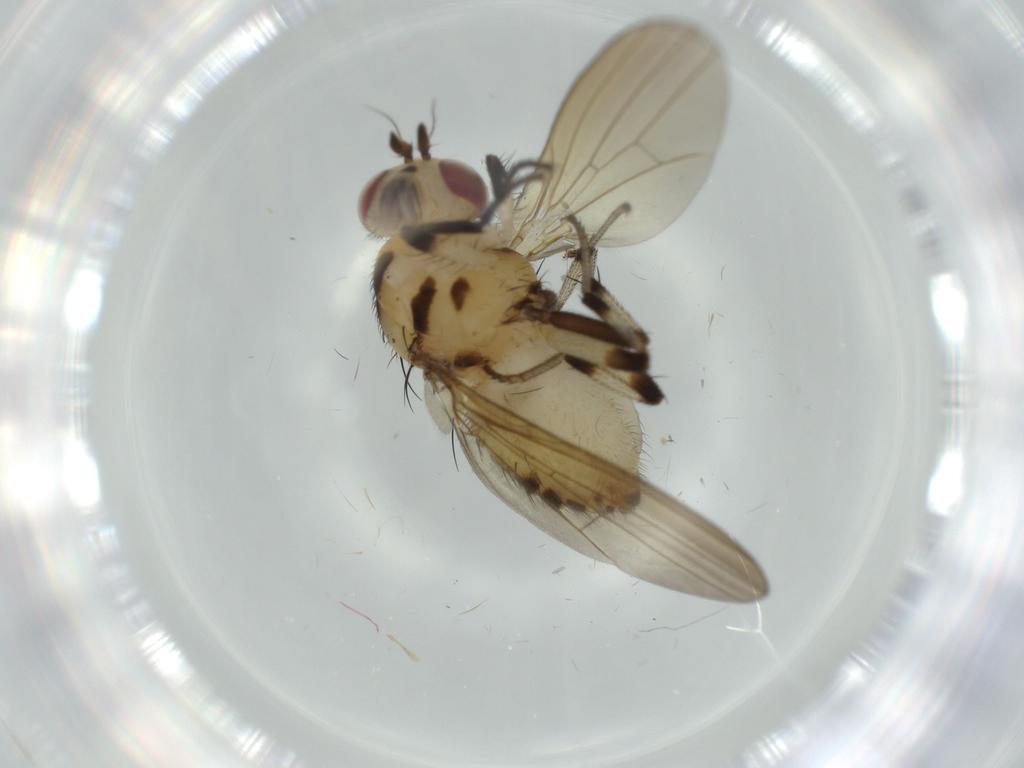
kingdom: Animalia
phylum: Arthropoda
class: Insecta
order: Diptera
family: Lauxaniidae
